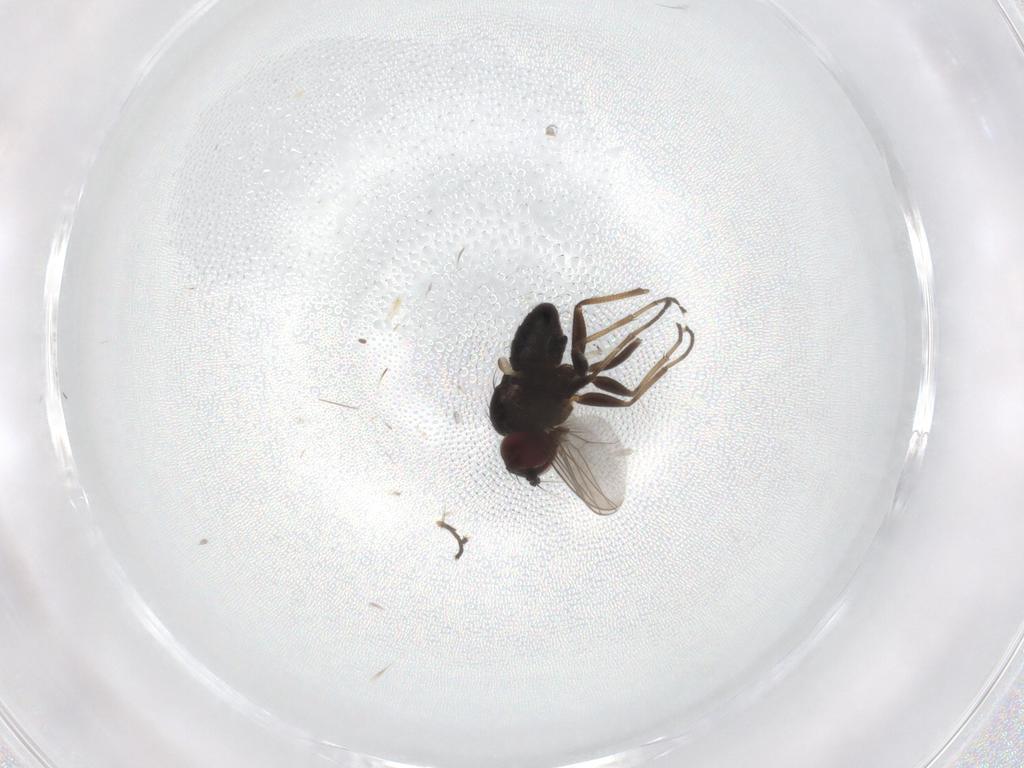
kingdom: Animalia
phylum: Arthropoda
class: Insecta
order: Diptera
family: Dolichopodidae
